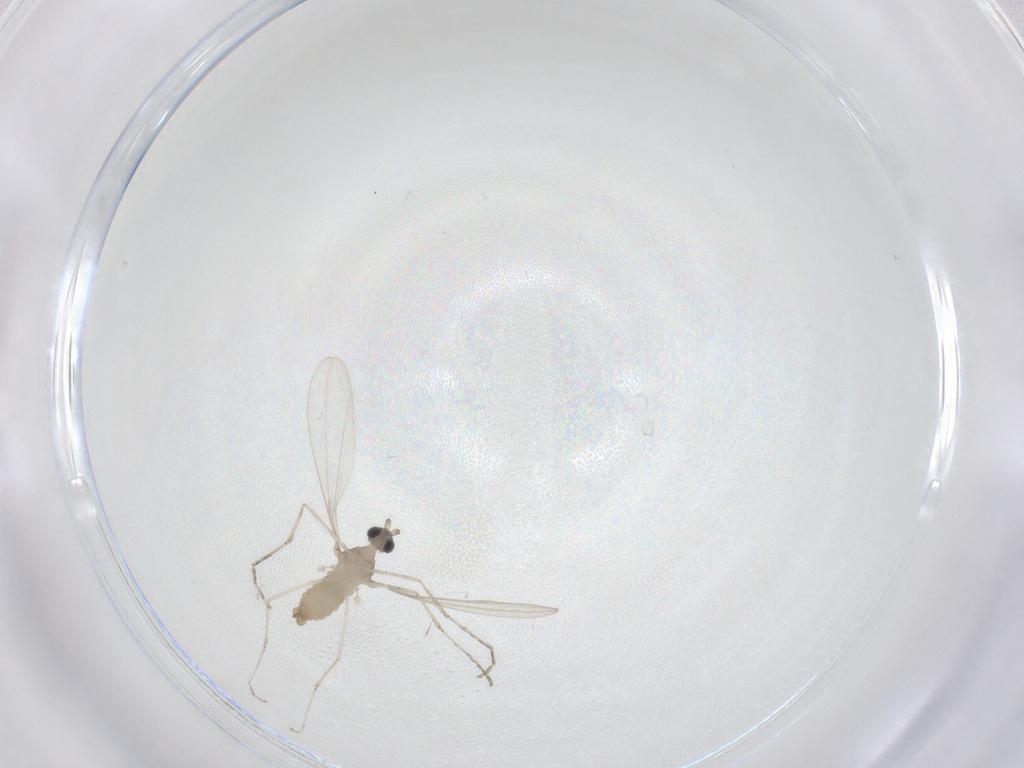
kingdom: Animalia
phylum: Arthropoda
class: Insecta
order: Diptera
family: Cecidomyiidae
